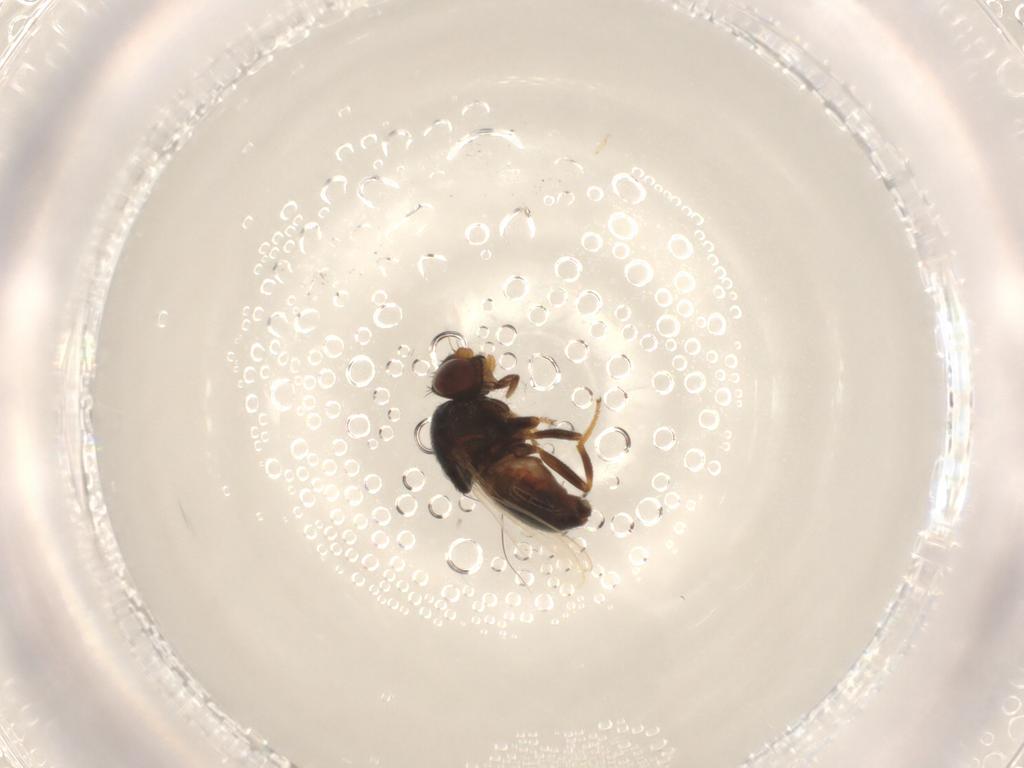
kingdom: Animalia
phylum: Arthropoda
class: Insecta
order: Diptera
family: Chloropidae
